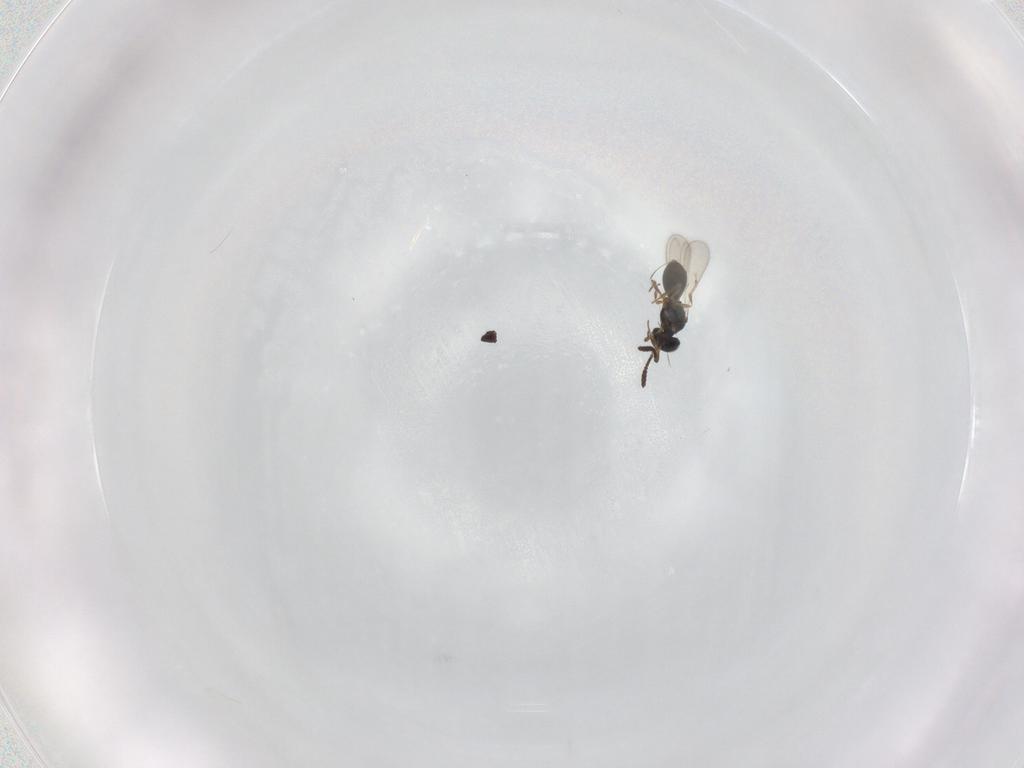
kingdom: Animalia
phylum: Arthropoda
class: Insecta
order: Hymenoptera
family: Scelionidae
